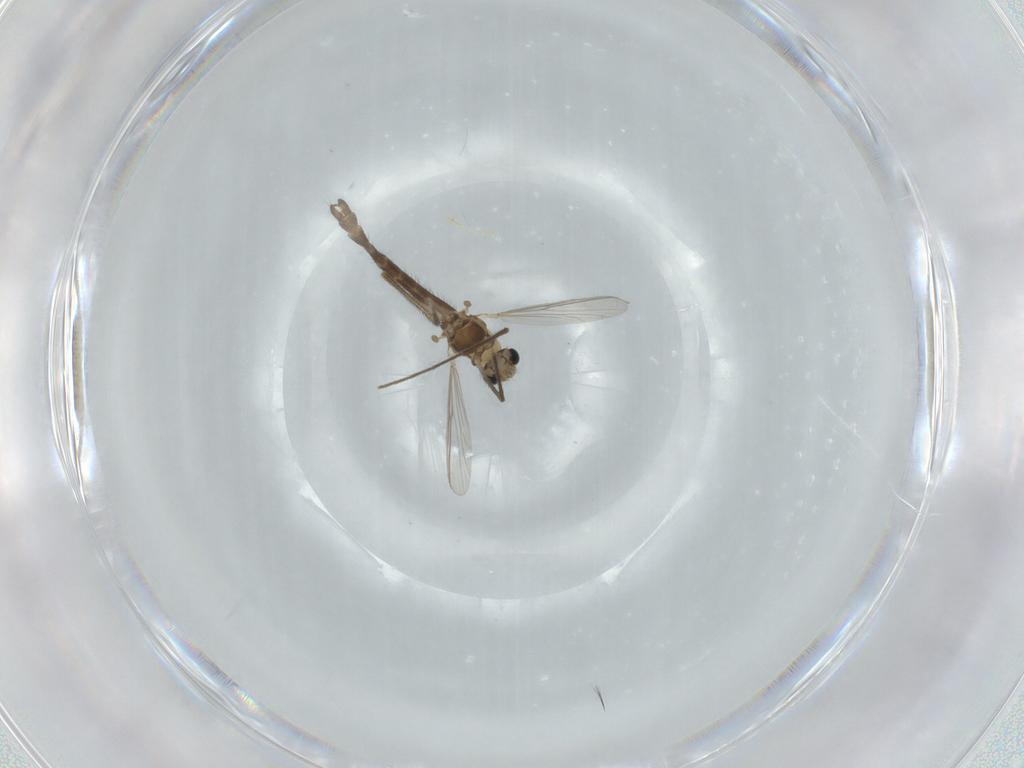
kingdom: Animalia
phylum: Arthropoda
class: Insecta
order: Diptera
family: Chironomidae
